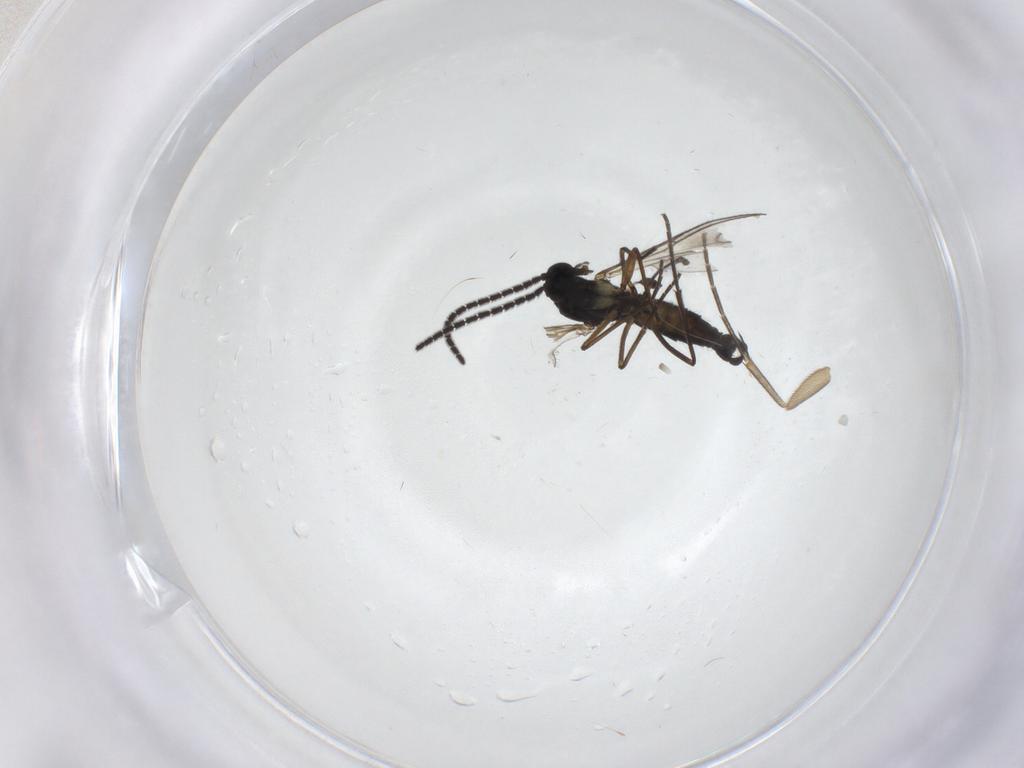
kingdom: Animalia
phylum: Arthropoda
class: Insecta
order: Diptera
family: Sciaridae
